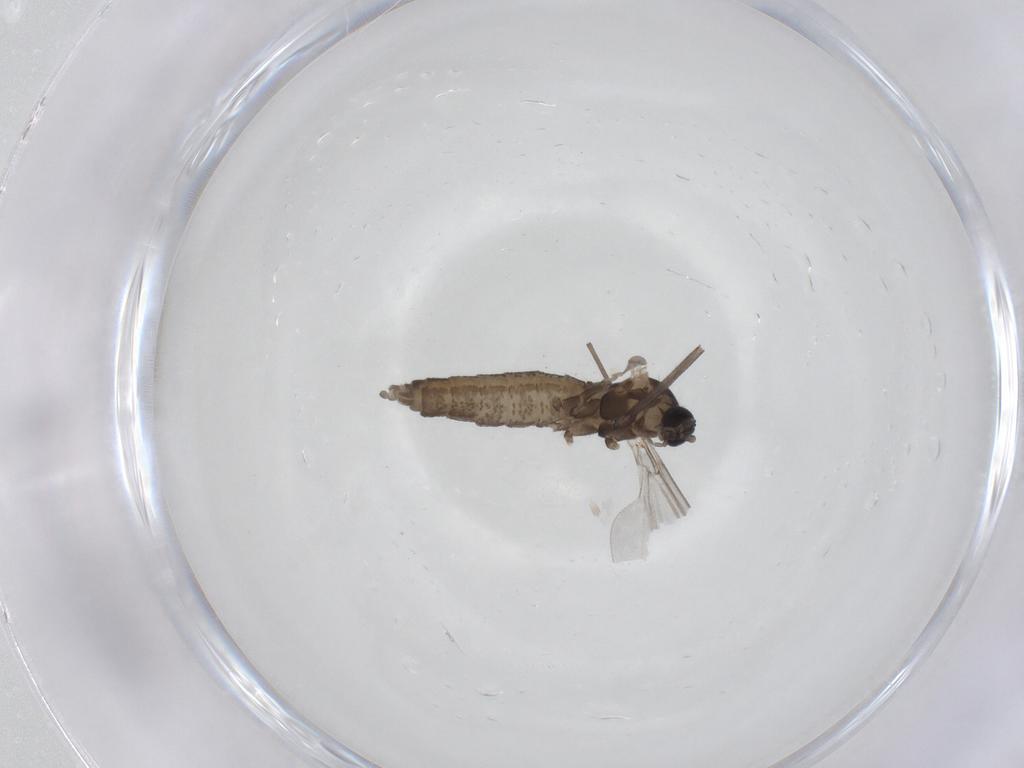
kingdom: Animalia
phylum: Arthropoda
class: Insecta
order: Diptera
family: Cecidomyiidae
